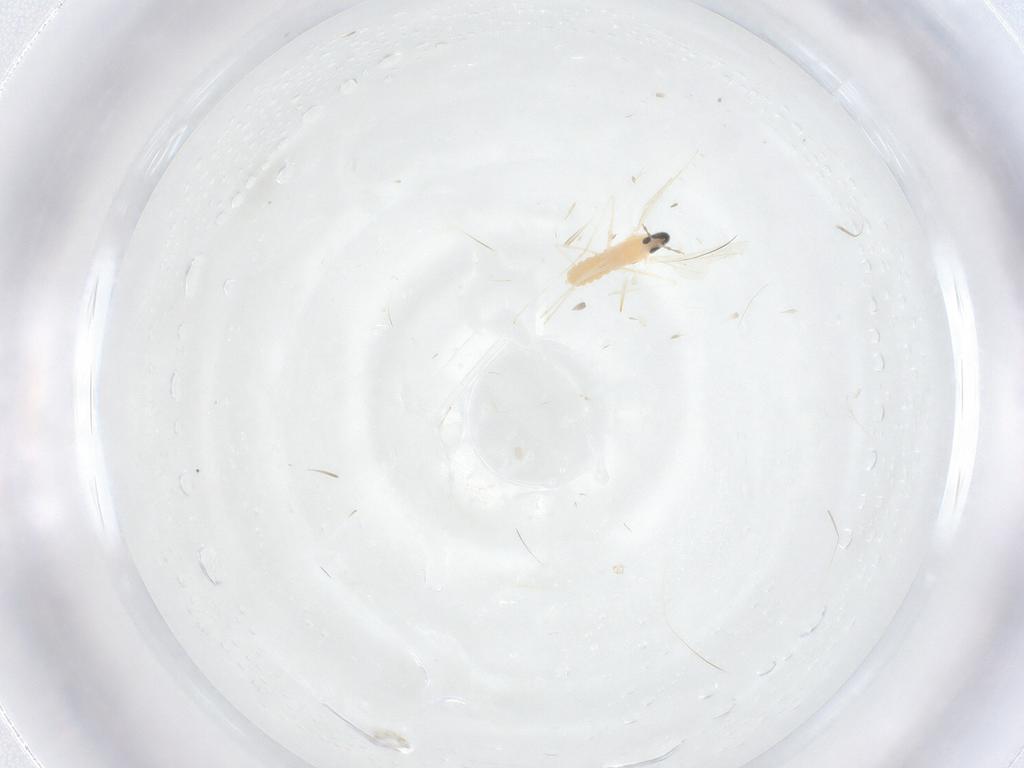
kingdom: Animalia
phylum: Arthropoda
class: Insecta
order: Diptera
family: Cecidomyiidae
